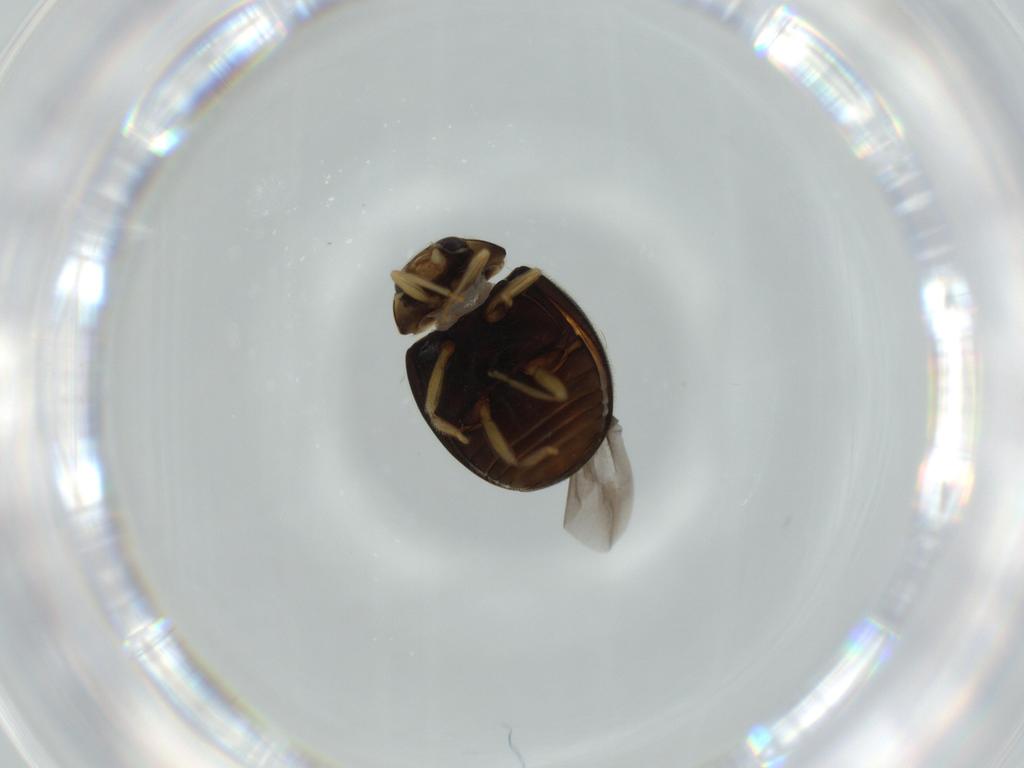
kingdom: Animalia
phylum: Arthropoda
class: Insecta
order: Coleoptera
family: Coccinellidae
